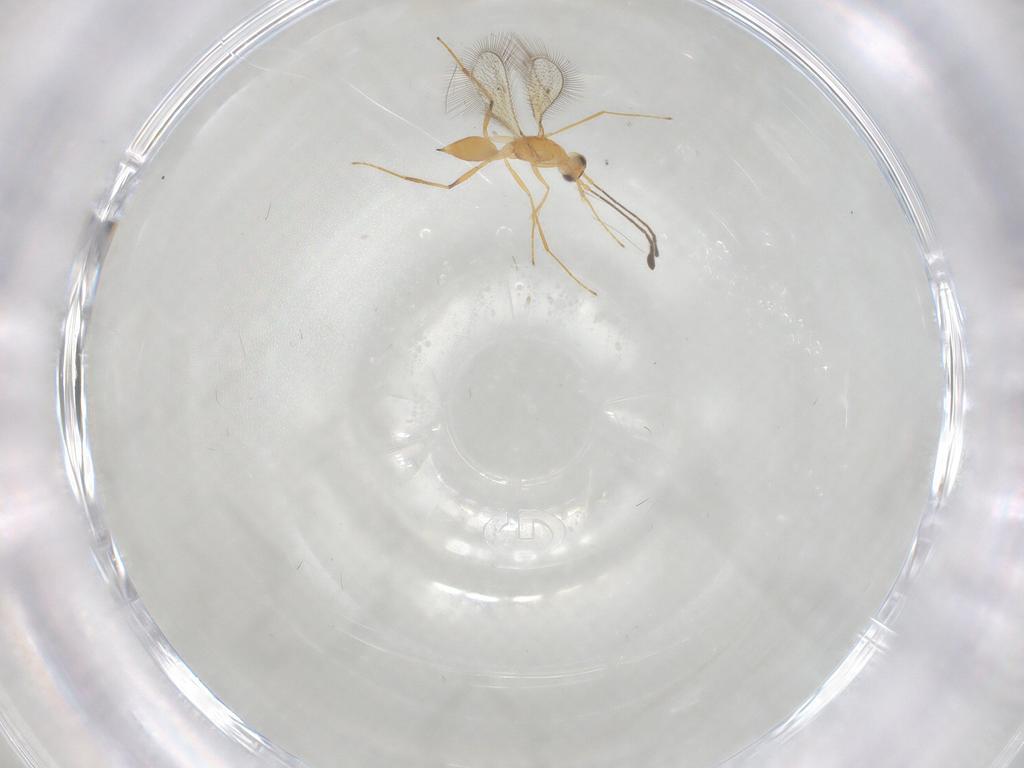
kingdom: Animalia
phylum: Arthropoda
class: Insecta
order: Hymenoptera
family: Mymaridae
